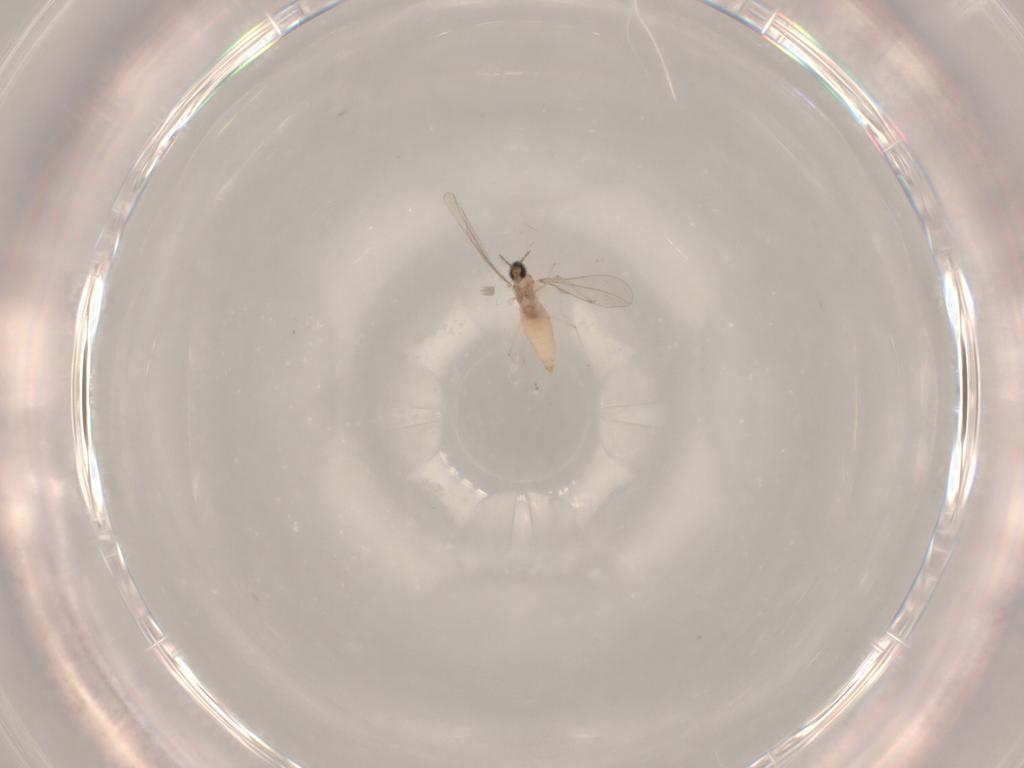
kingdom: Animalia
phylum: Arthropoda
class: Insecta
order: Diptera
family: Cecidomyiidae
